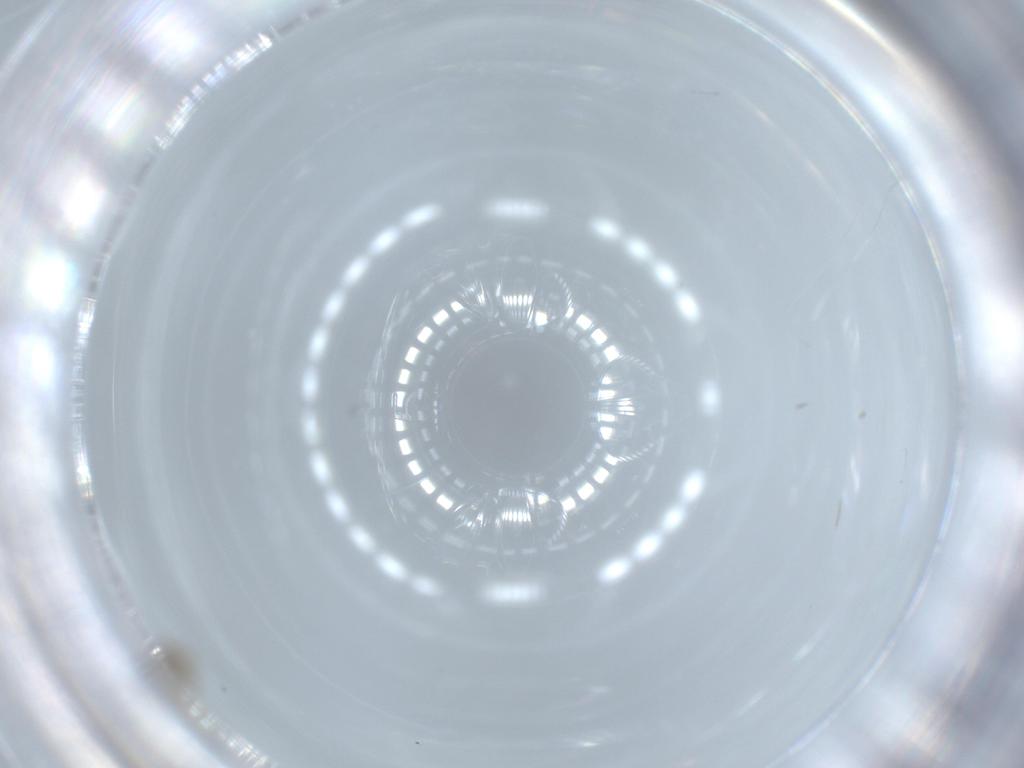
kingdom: Animalia
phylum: Arthropoda
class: Insecta
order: Diptera
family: Cecidomyiidae
